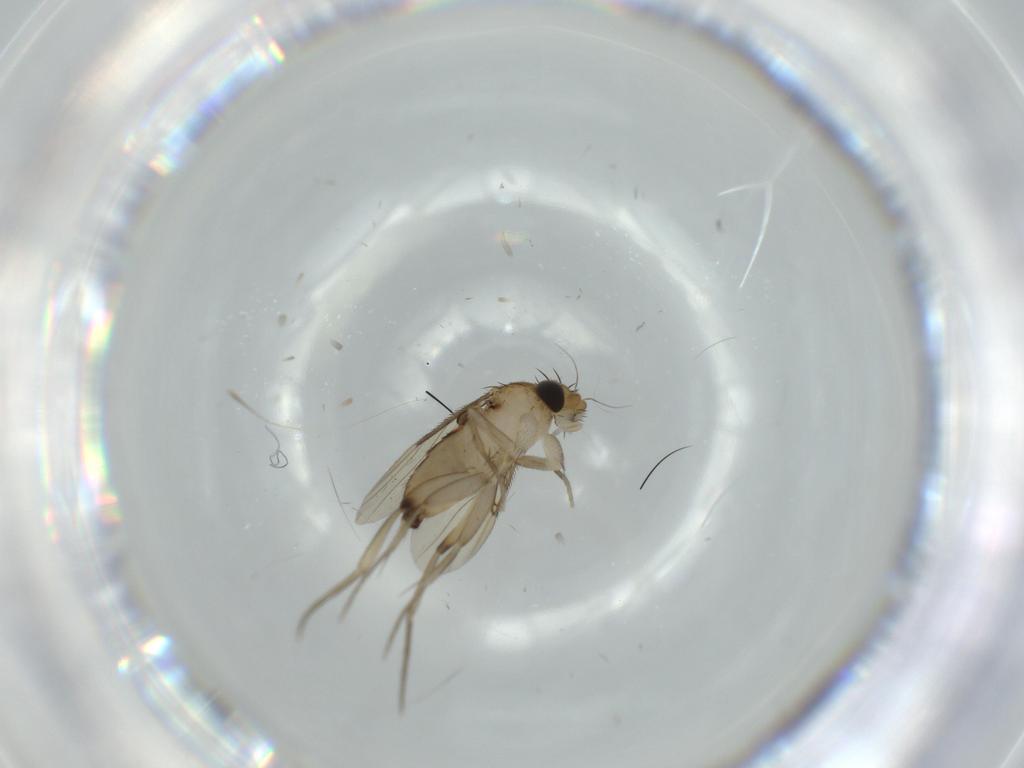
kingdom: Animalia
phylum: Arthropoda
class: Insecta
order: Diptera
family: Phoridae
